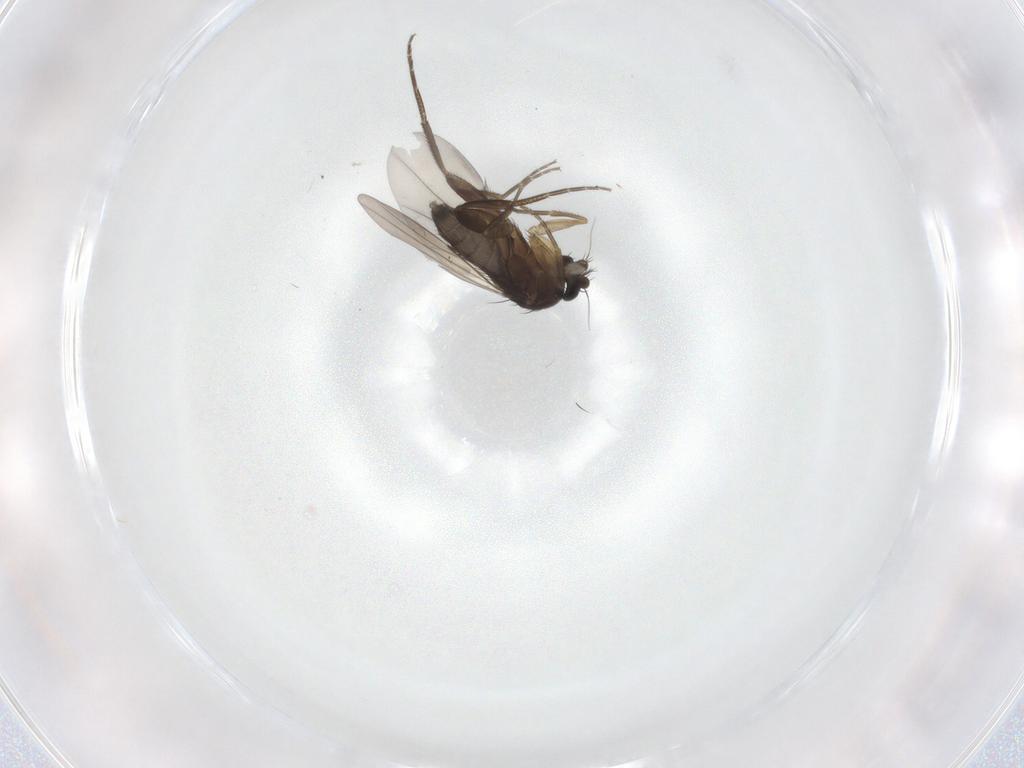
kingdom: Animalia
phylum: Arthropoda
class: Insecta
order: Diptera
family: Phoridae
